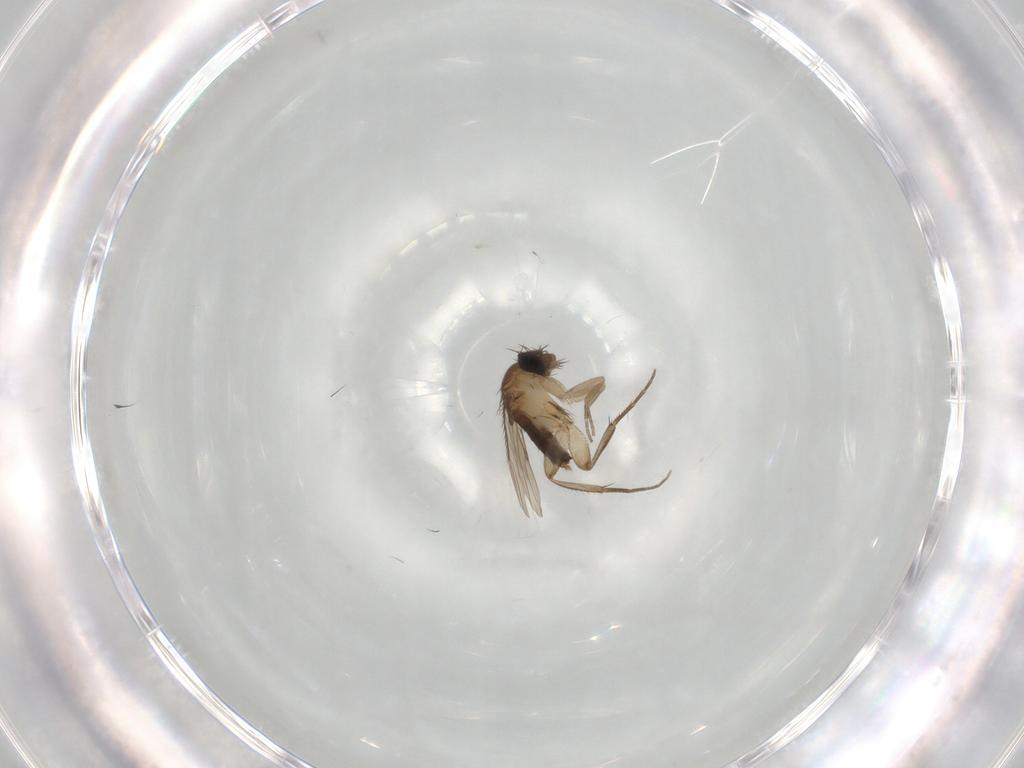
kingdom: Animalia
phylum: Arthropoda
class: Insecta
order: Diptera
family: Phoridae
